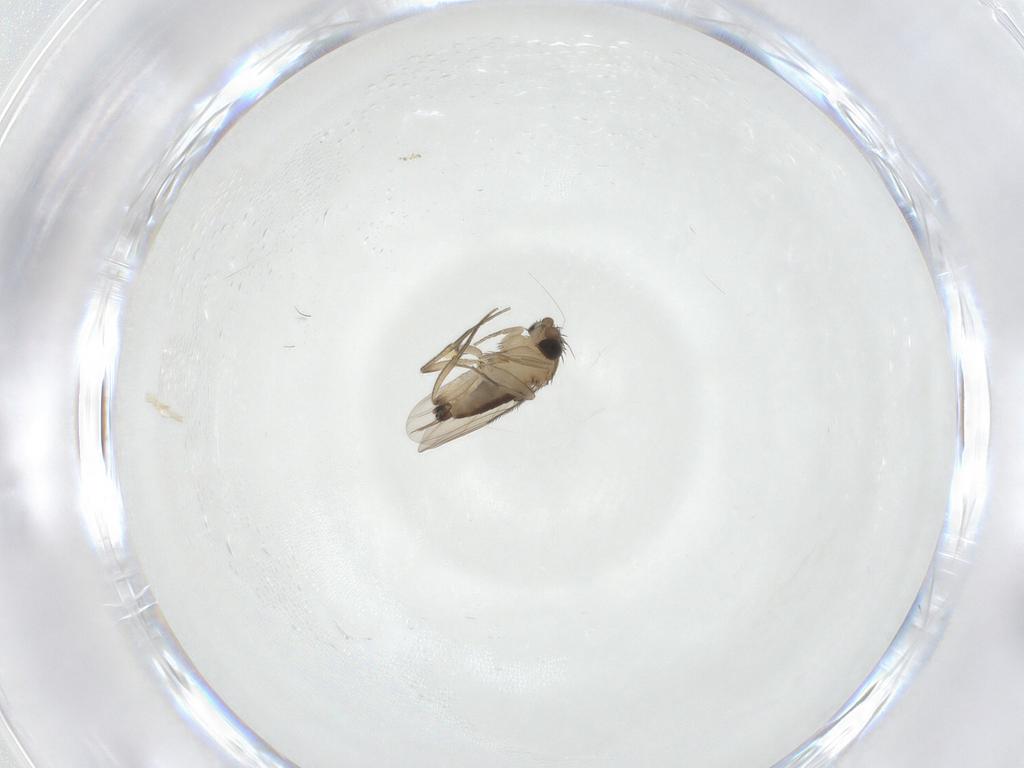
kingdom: Animalia
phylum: Arthropoda
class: Insecta
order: Diptera
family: Phoridae
